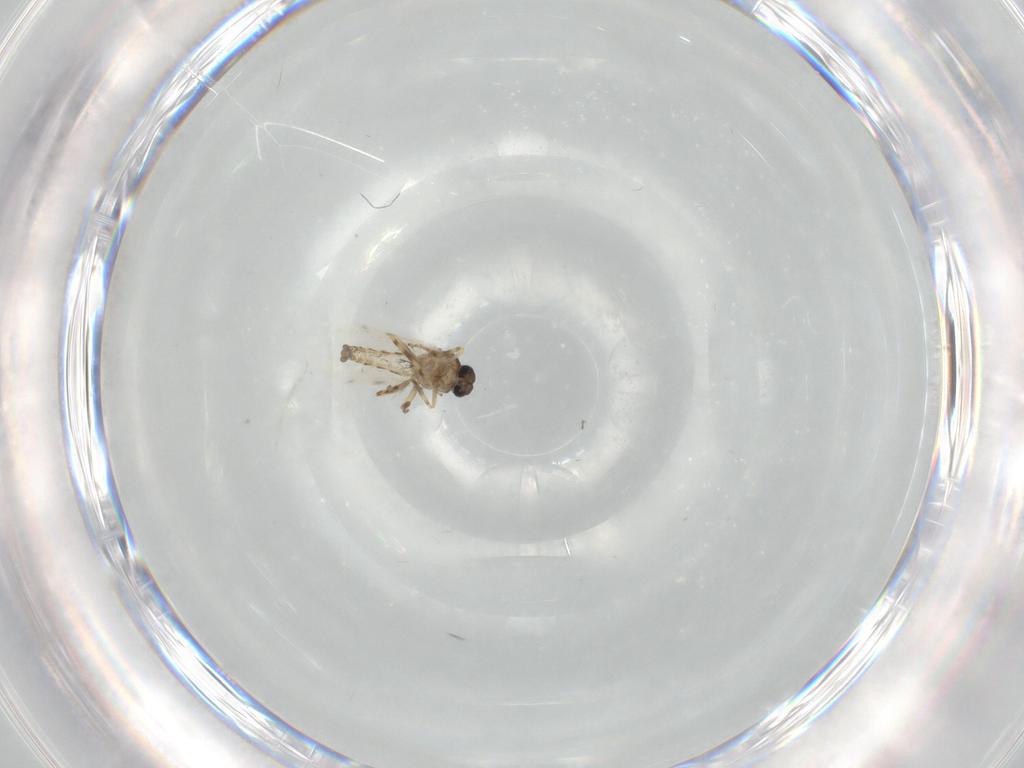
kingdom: Animalia
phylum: Arthropoda
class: Insecta
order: Diptera
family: Ceratopogonidae
